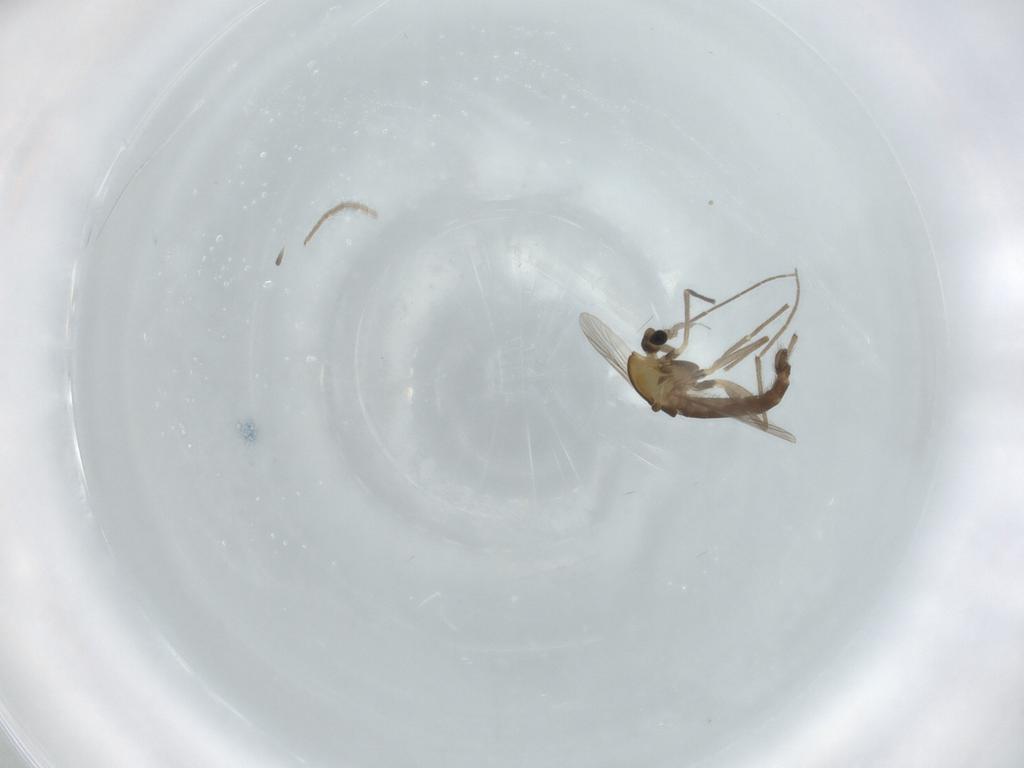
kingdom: Animalia
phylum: Arthropoda
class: Insecta
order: Diptera
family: Chironomidae
